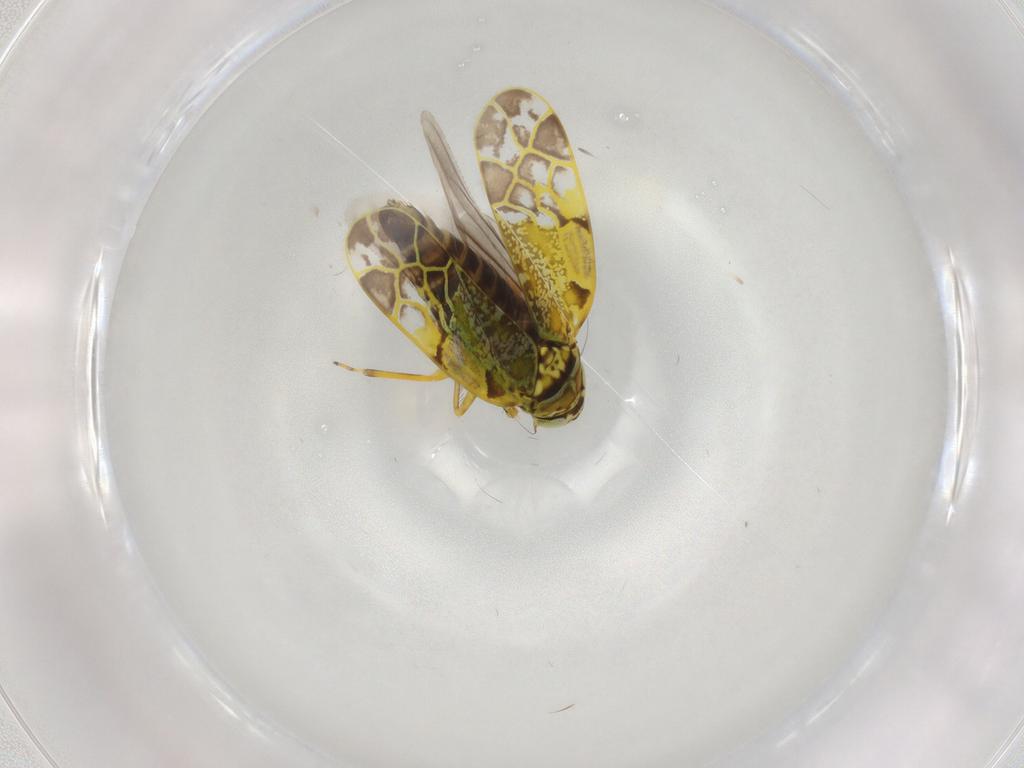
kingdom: Animalia
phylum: Arthropoda
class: Insecta
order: Hemiptera
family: Cicadellidae
